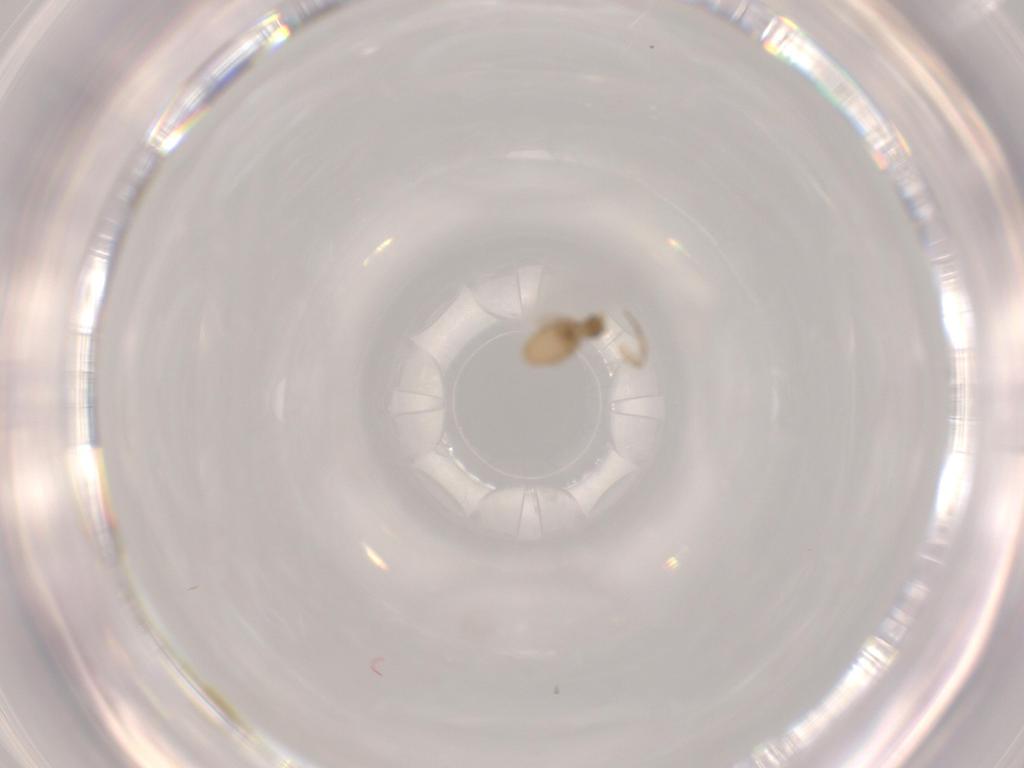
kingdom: Animalia
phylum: Arthropoda
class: Insecta
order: Diptera
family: Phoridae
